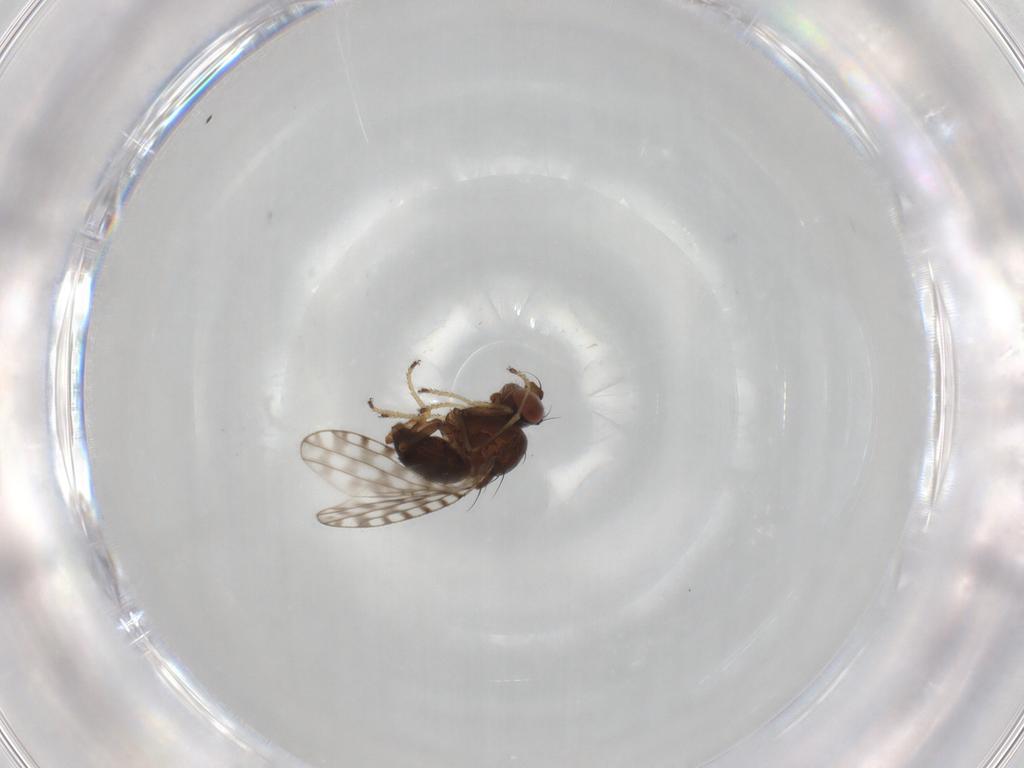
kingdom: Animalia
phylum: Arthropoda
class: Insecta
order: Diptera
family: Ephydridae
